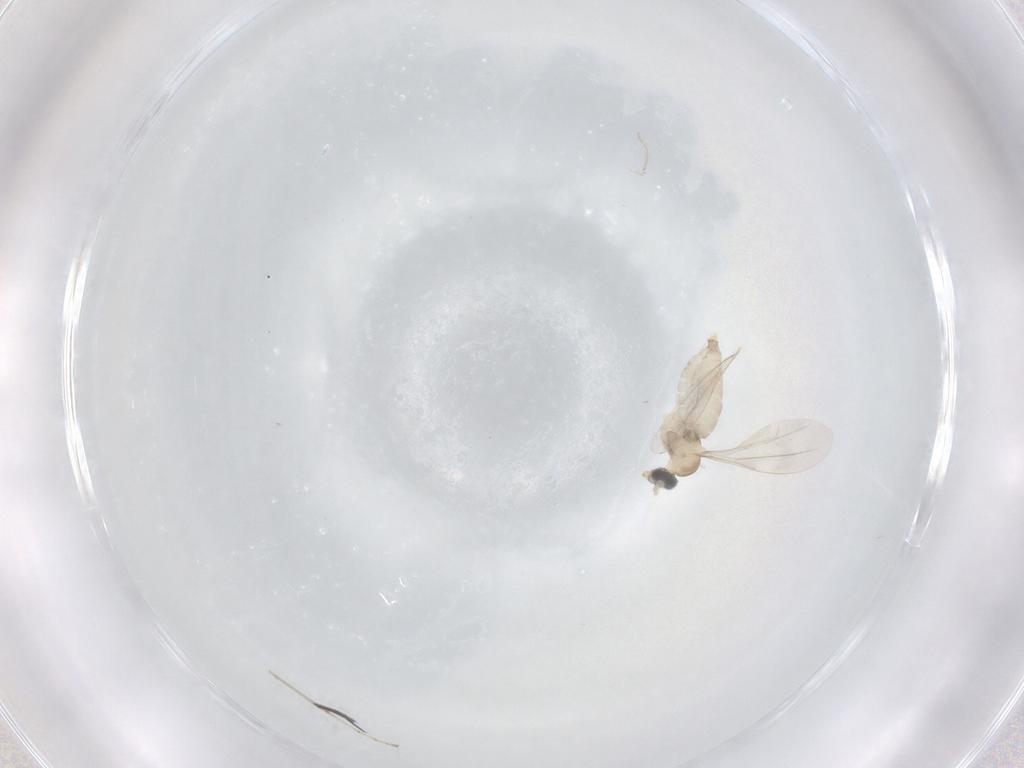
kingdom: Animalia
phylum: Arthropoda
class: Insecta
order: Diptera
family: Cecidomyiidae
